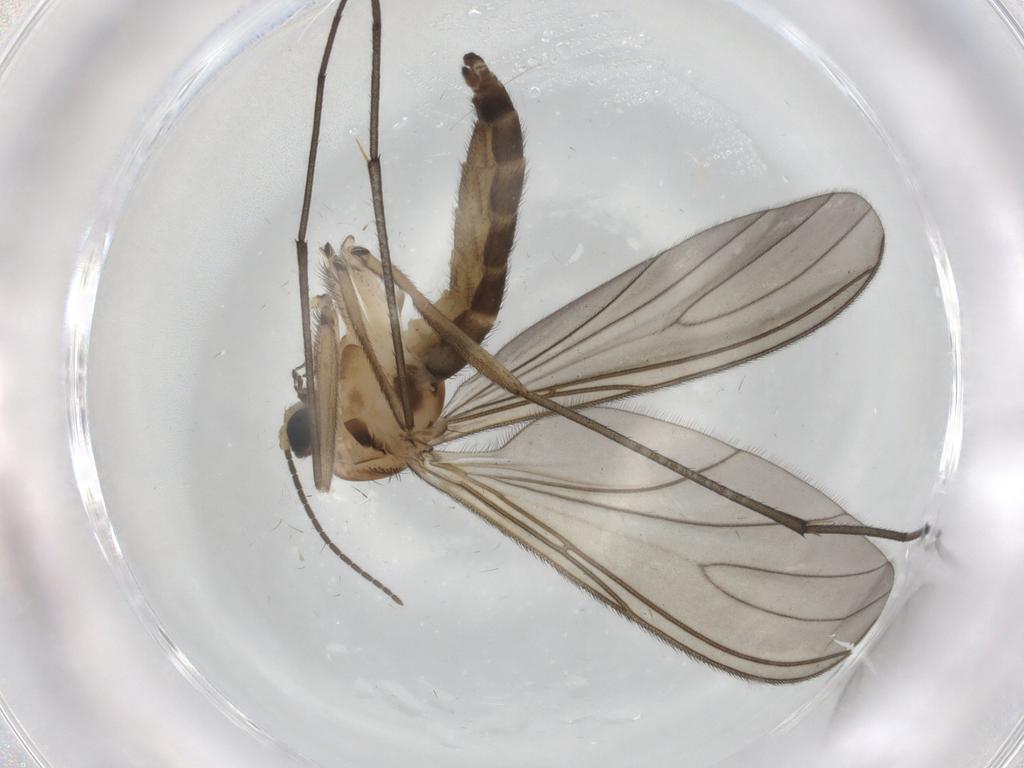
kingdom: Animalia
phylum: Arthropoda
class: Insecta
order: Diptera
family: Sciaridae
